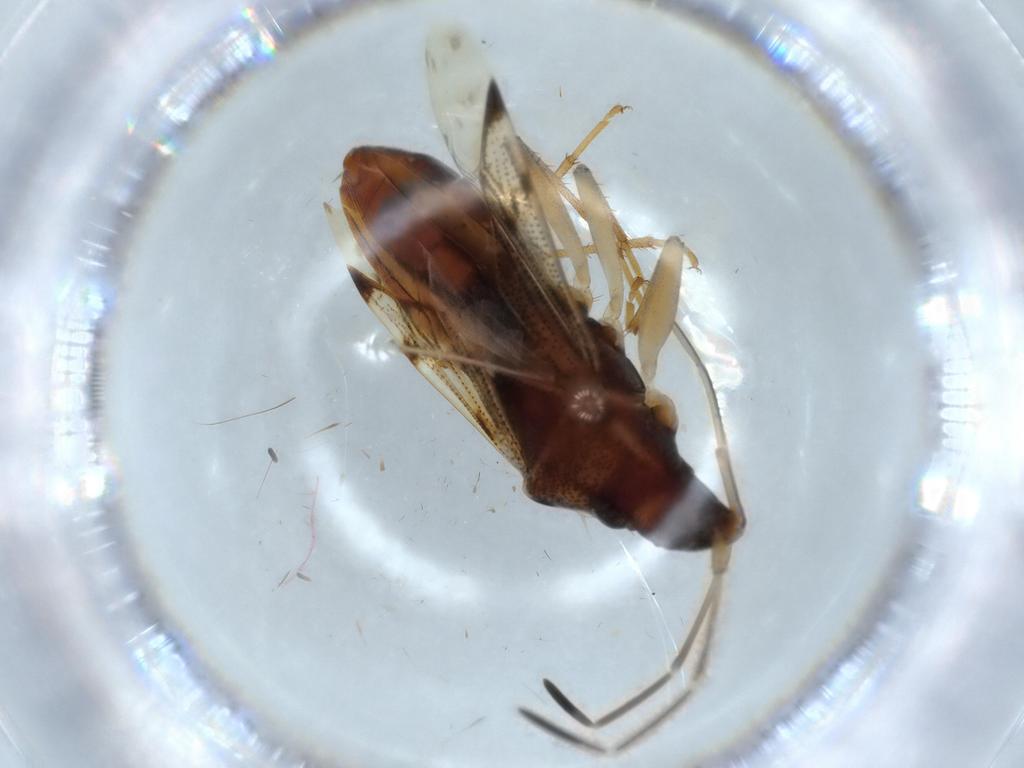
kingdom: Animalia
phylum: Arthropoda
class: Insecta
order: Hemiptera
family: Rhyparochromidae
